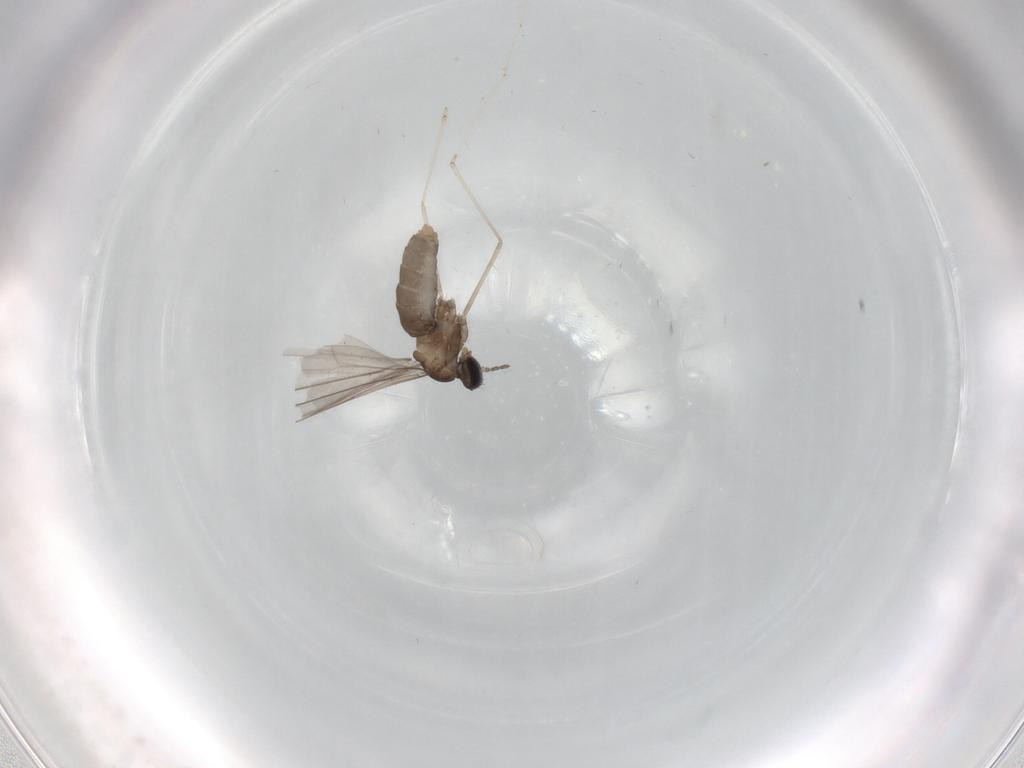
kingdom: Animalia
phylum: Arthropoda
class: Insecta
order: Diptera
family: Cecidomyiidae
